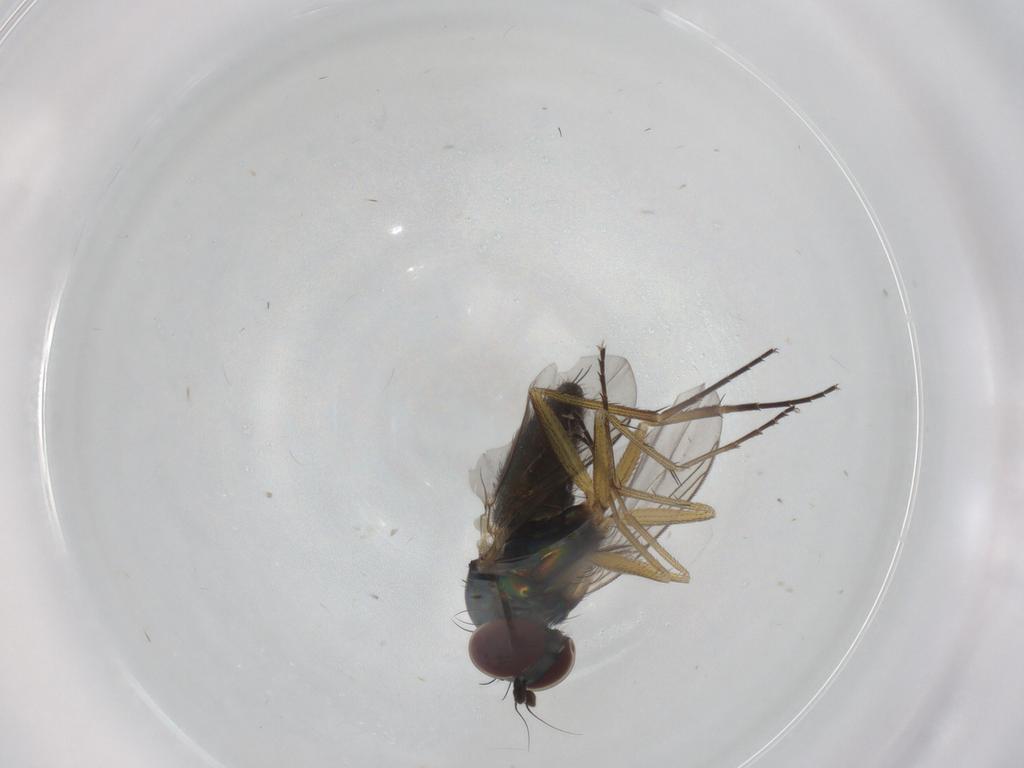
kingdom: Animalia
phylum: Arthropoda
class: Insecta
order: Diptera
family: Dolichopodidae
